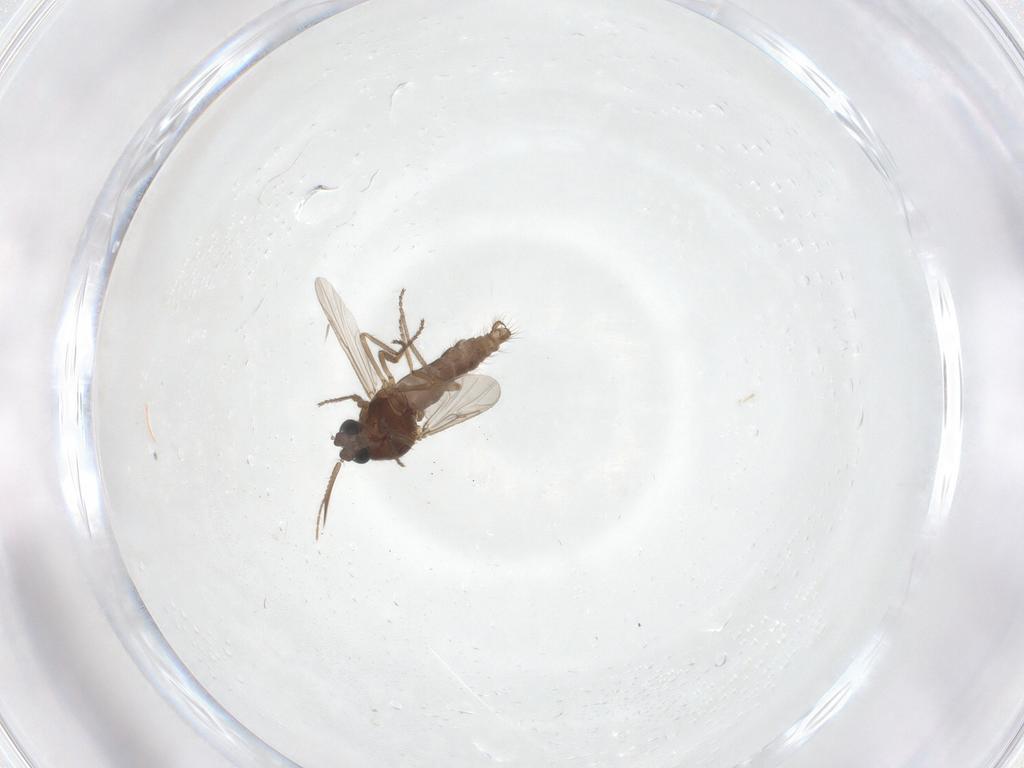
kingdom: Animalia
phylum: Arthropoda
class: Insecta
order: Diptera
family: Ceratopogonidae
